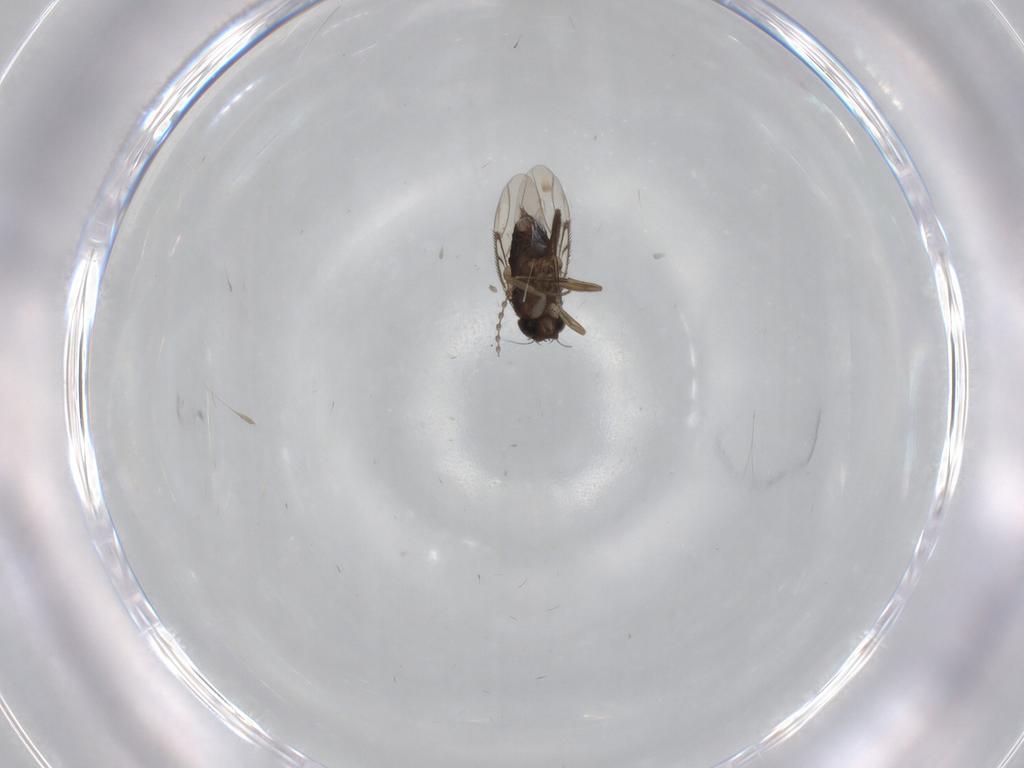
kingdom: Animalia
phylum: Arthropoda
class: Insecta
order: Diptera
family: Phoridae
